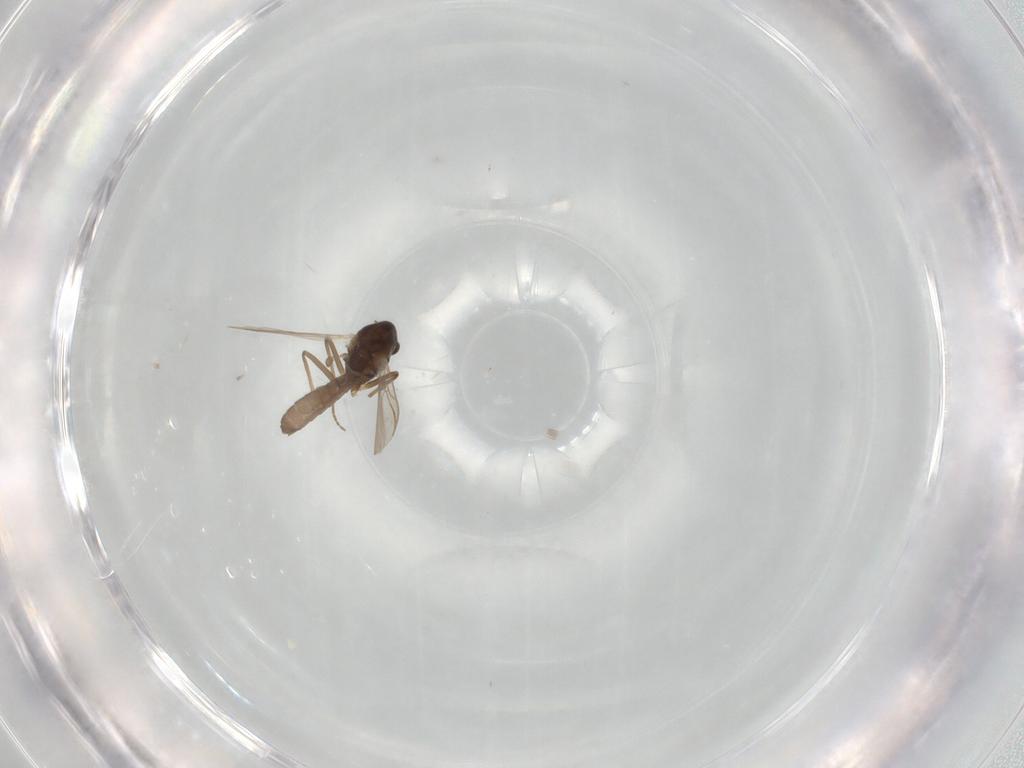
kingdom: Animalia
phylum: Arthropoda
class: Insecta
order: Diptera
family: Chironomidae
